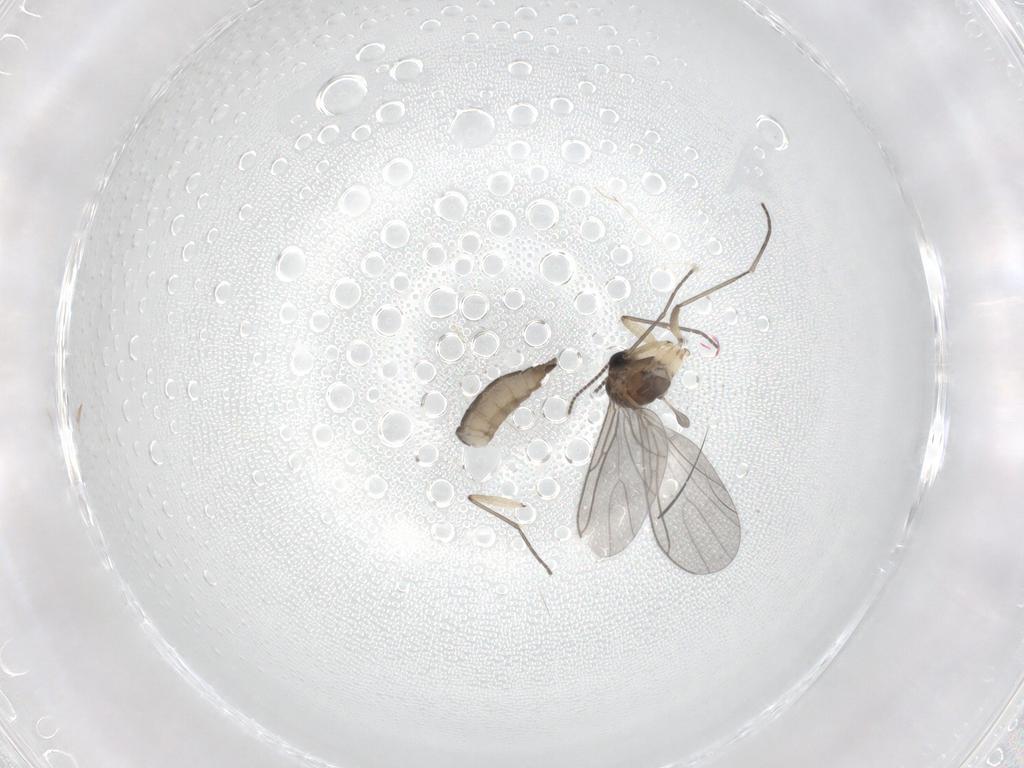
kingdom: Animalia
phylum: Arthropoda
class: Insecta
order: Diptera
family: Sciaridae
